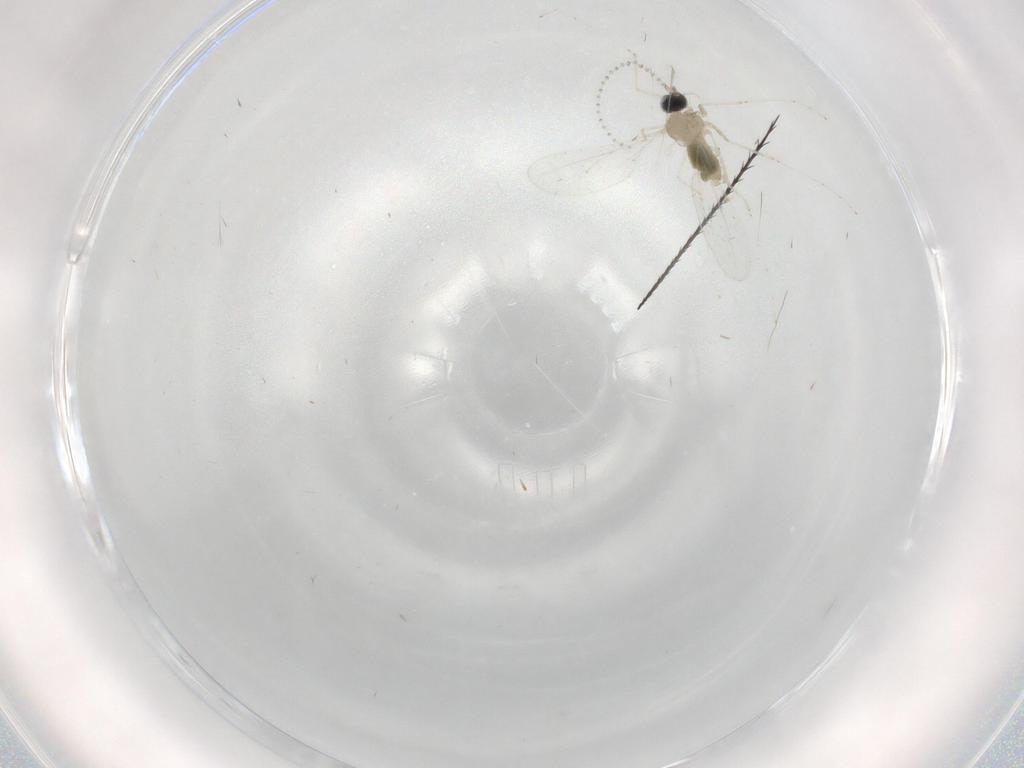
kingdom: Animalia
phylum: Arthropoda
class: Insecta
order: Diptera
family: Cecidomyiidae
